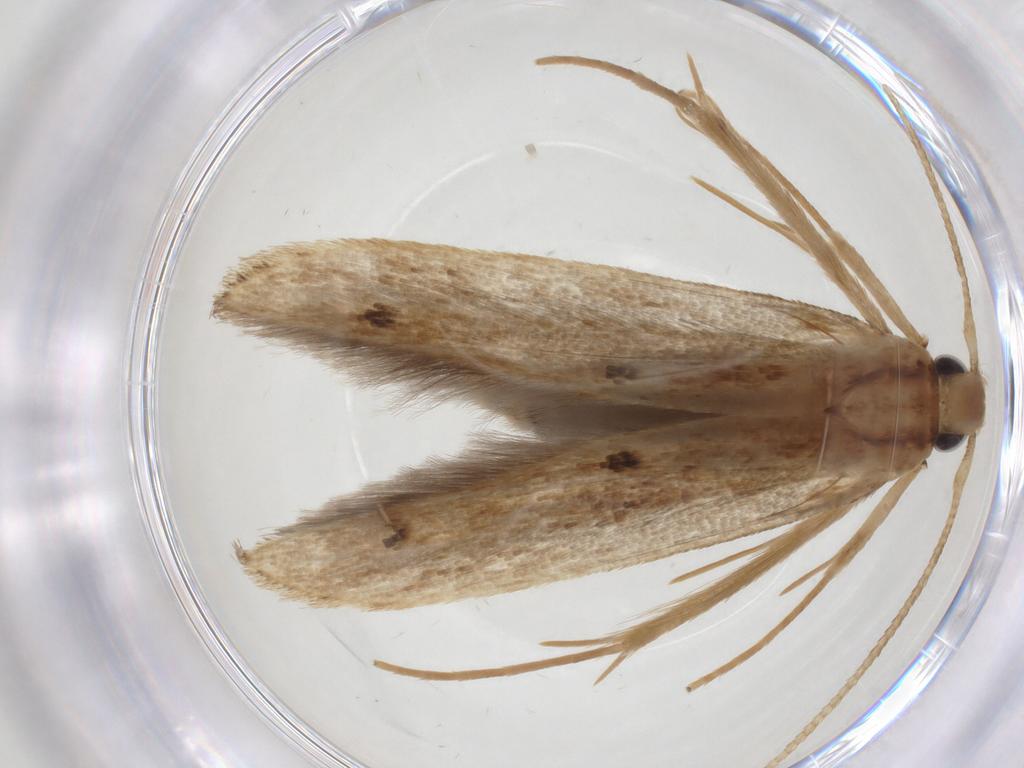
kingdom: Animalia
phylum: Arthropoda
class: Insecta
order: Lepidoptera
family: Coleophoridae
